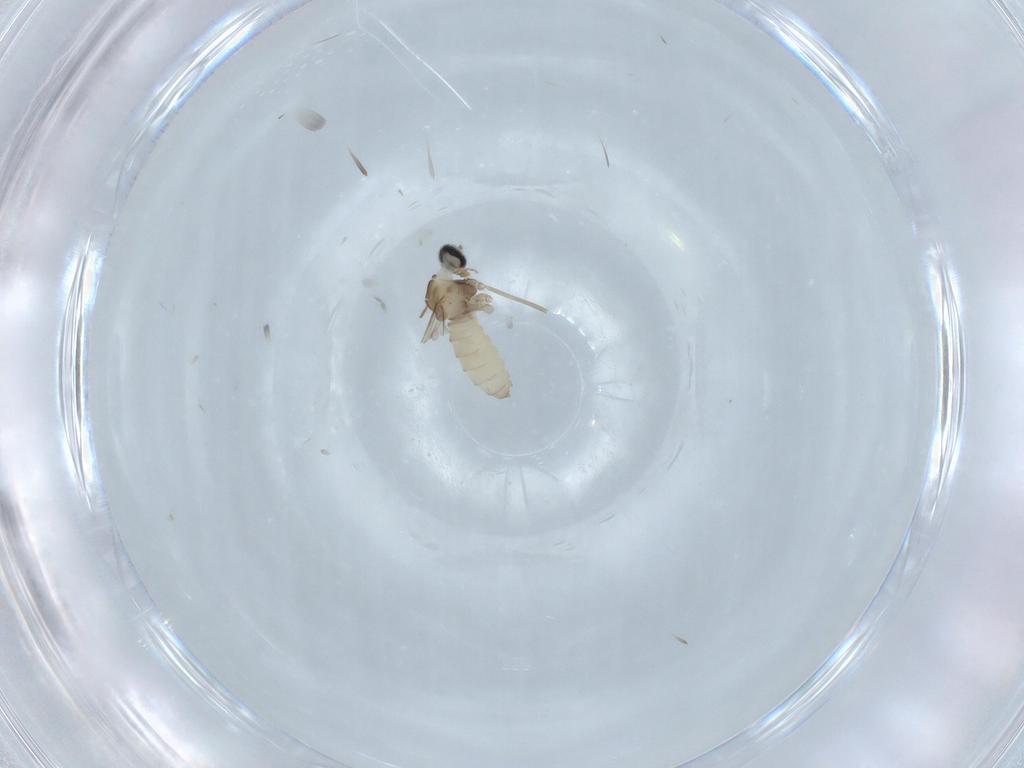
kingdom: Animalia
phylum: Arthropoda
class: Insecta
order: Diptera
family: Cecidomyiidae
